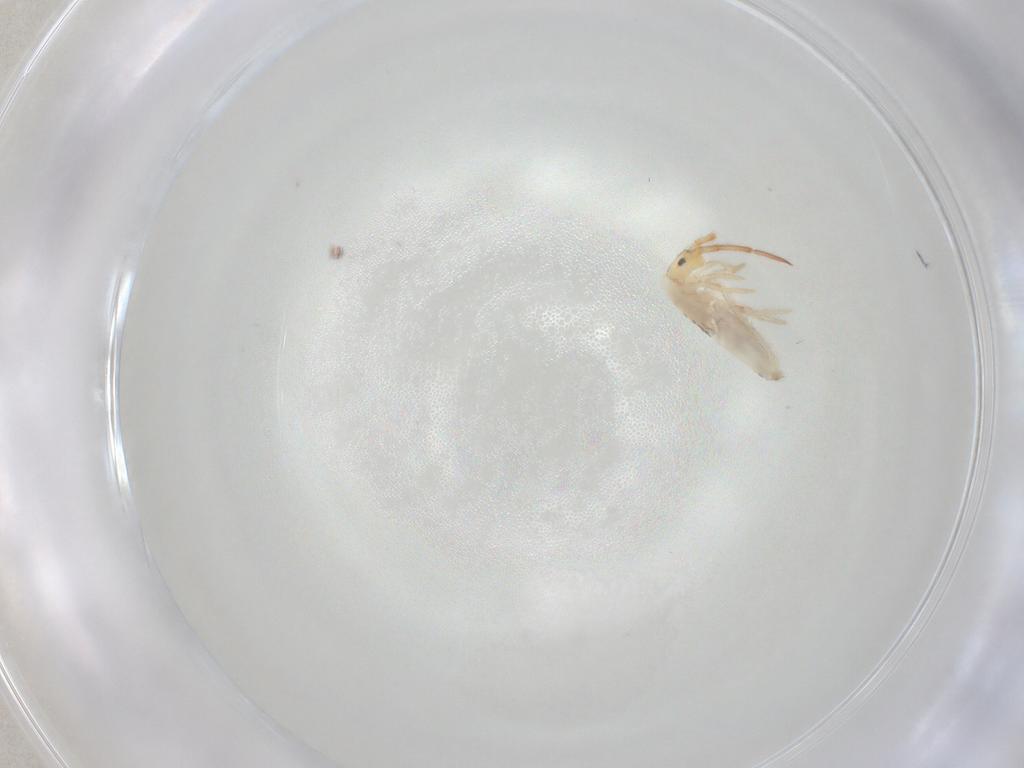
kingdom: Animalia
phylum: Arthropoda
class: Collembola
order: Poduromorpha
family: Hypogastruridae
